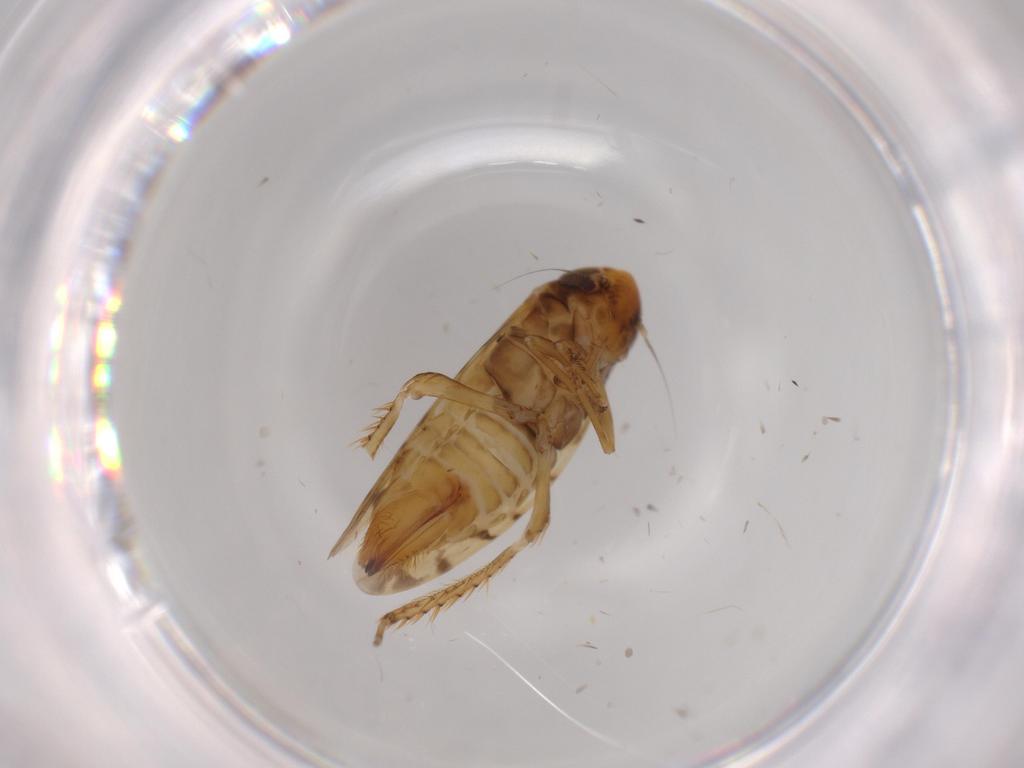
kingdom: Animalia
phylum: Arthropoda
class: Insecta
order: Hemiptera
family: Cicadellidae
